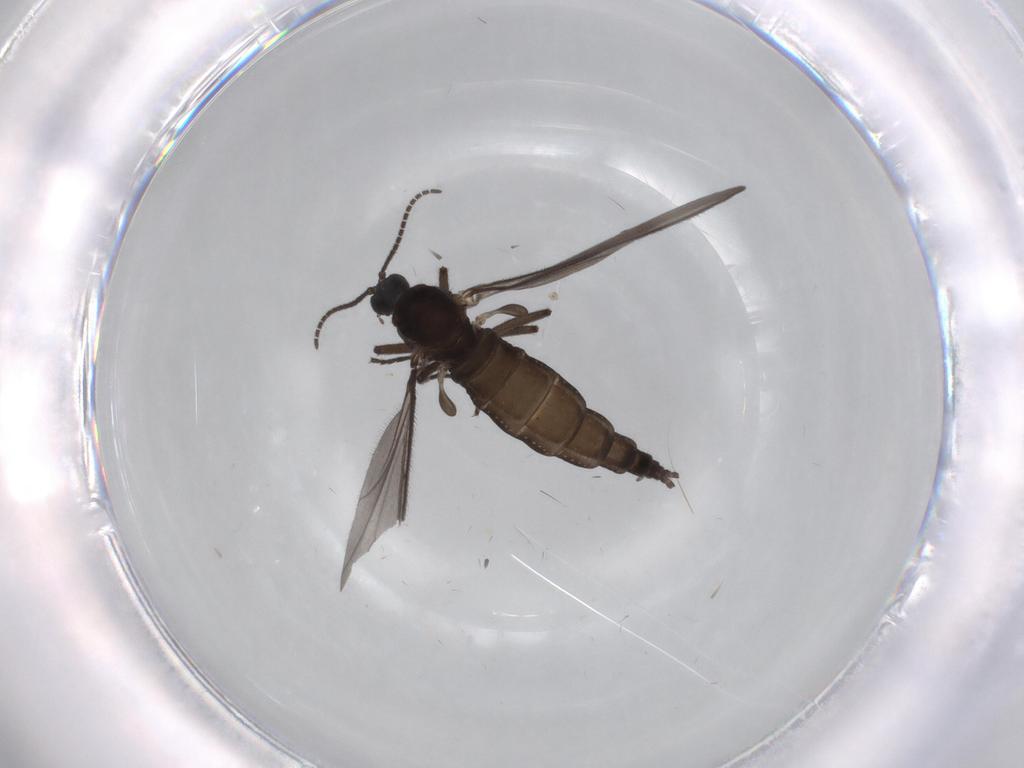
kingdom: Animalia
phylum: Arthropoda
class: Insecta
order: Diptera
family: Sciaridae
